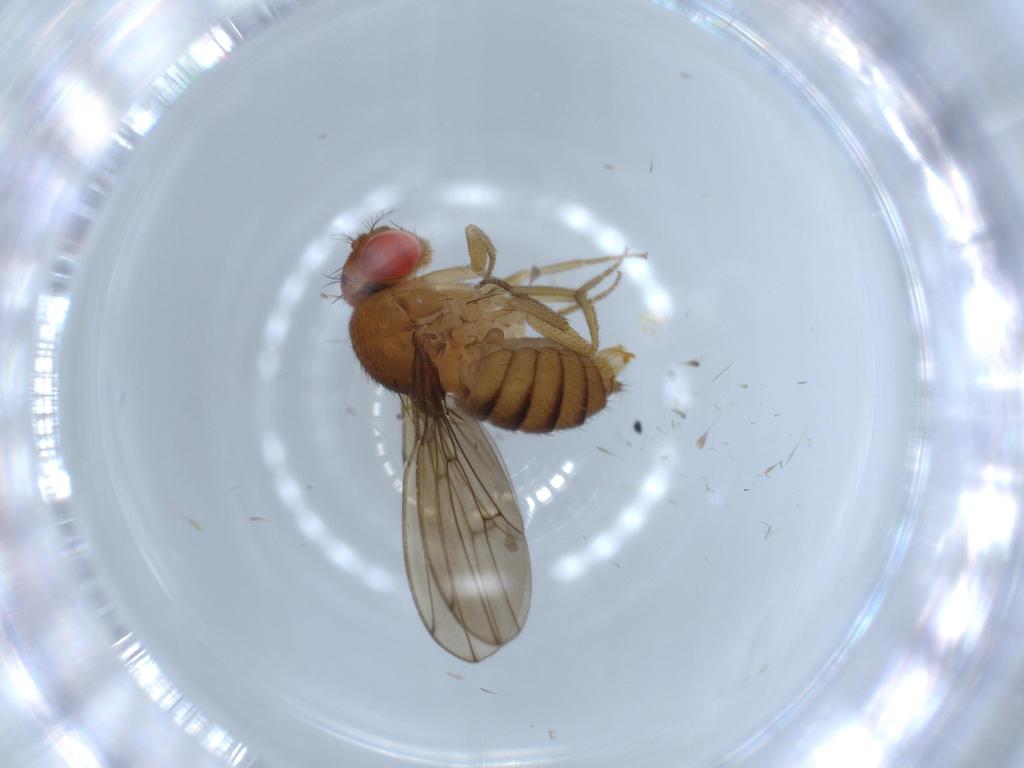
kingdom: Animalia
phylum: Arthropoda
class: Insecta
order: Diptera
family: Drosophilidae
